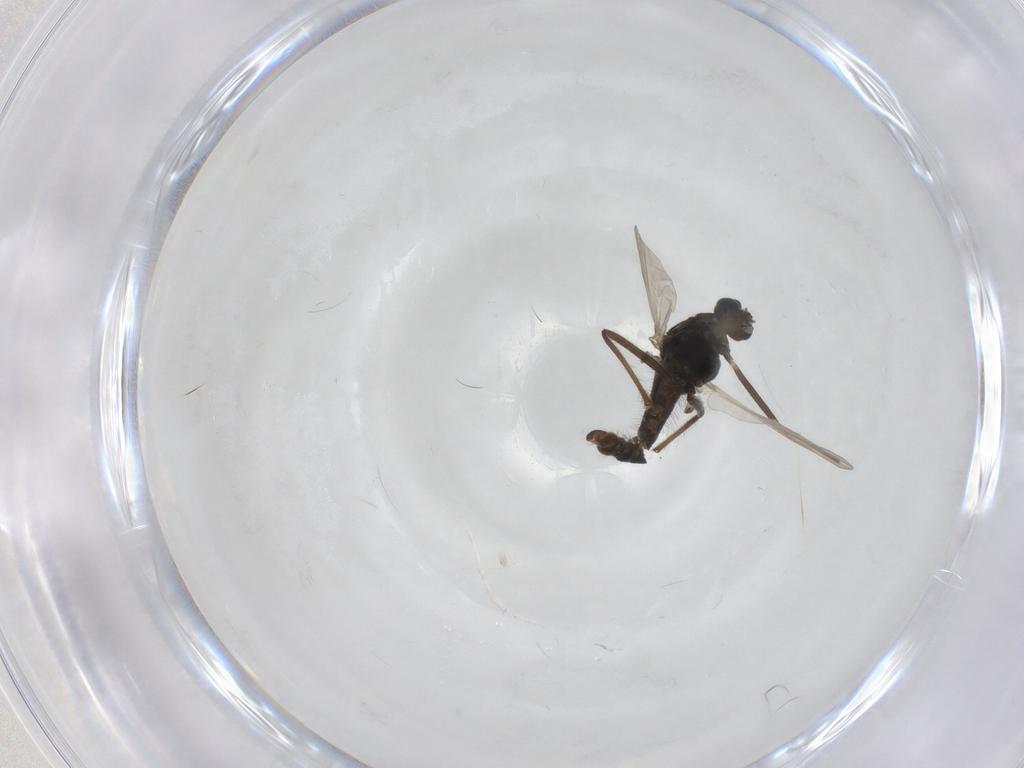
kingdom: Animalia
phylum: Arthropoda
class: Insecta
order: Diptera
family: Chironomidae
